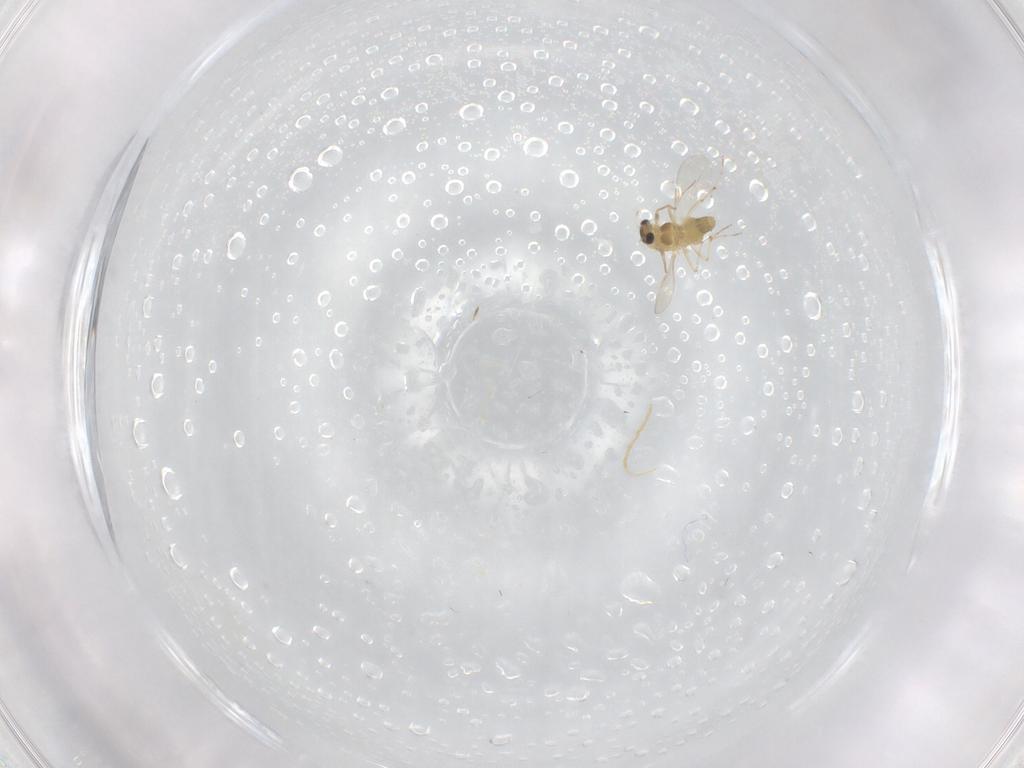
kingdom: Animalia
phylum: Arthropoda
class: Insecta
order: Diptera
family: Chironomidae
